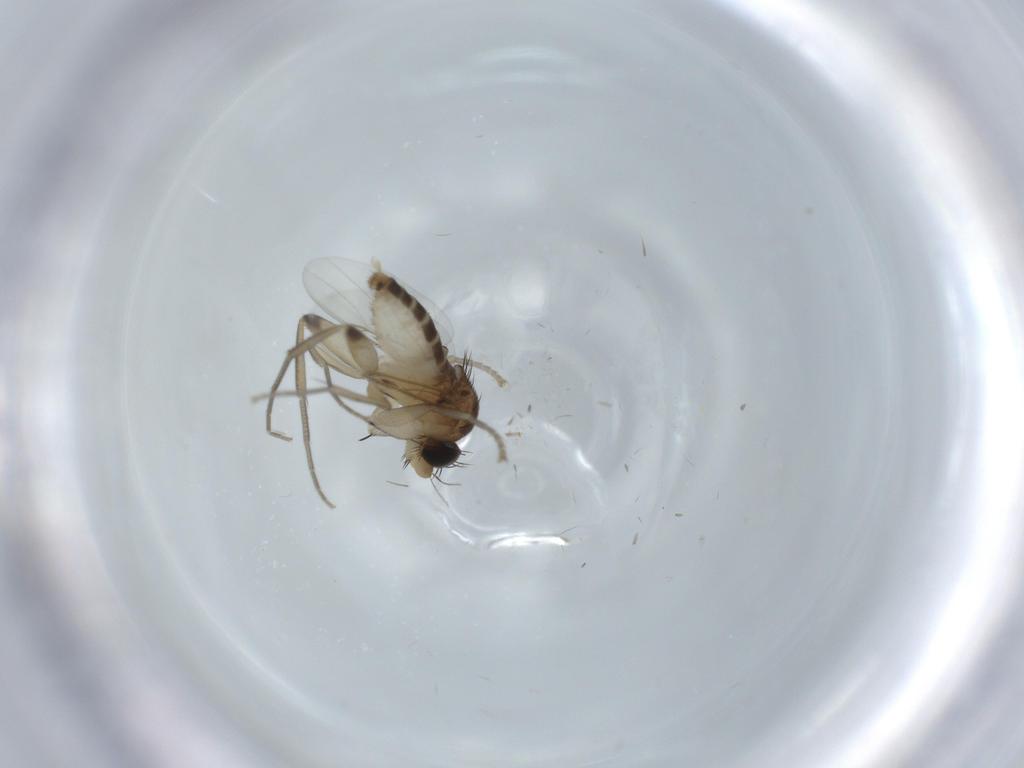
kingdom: Animalia
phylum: Arthropoda
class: Insecta
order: Diptera
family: Phoridae
